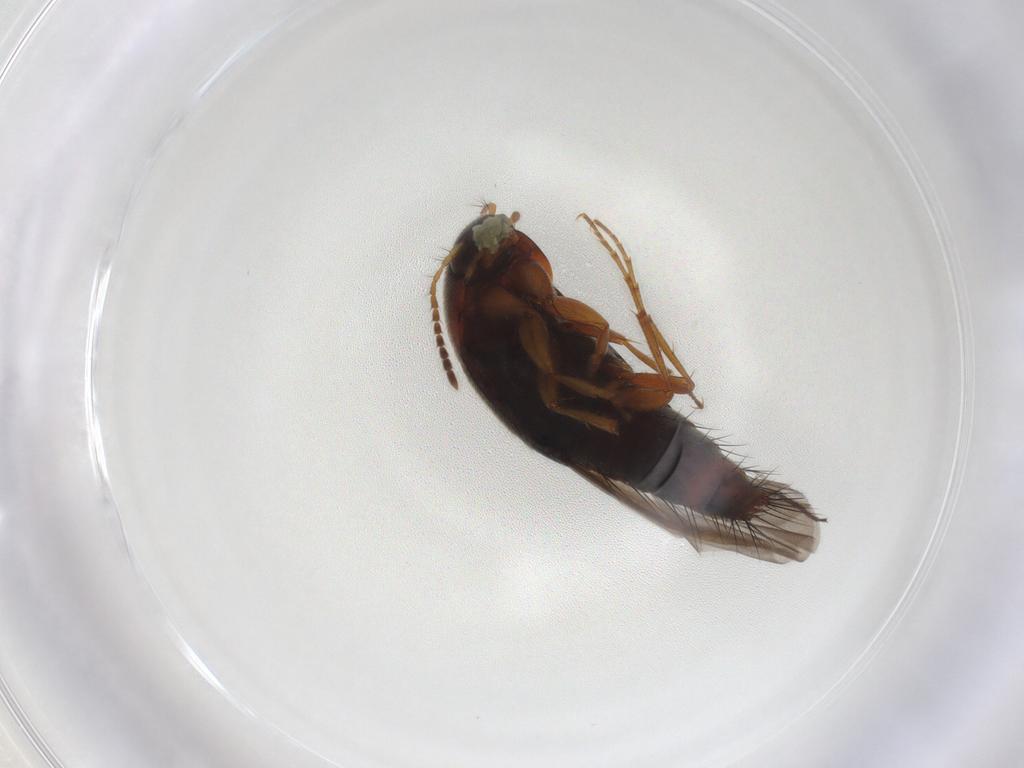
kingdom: Animalia
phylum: Arthropoda
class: Insecta
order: Coleoptera
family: Staphylinidae
